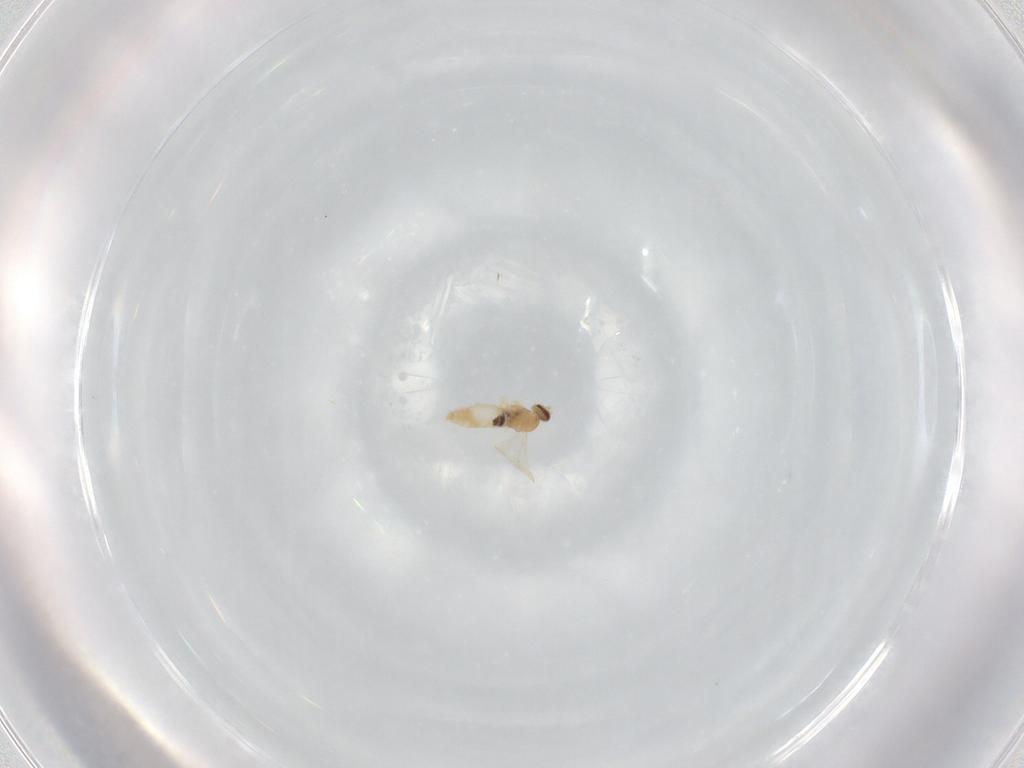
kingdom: Animalia
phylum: Arthropoda
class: Insecta
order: Diptera
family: Cecidomyiidae
